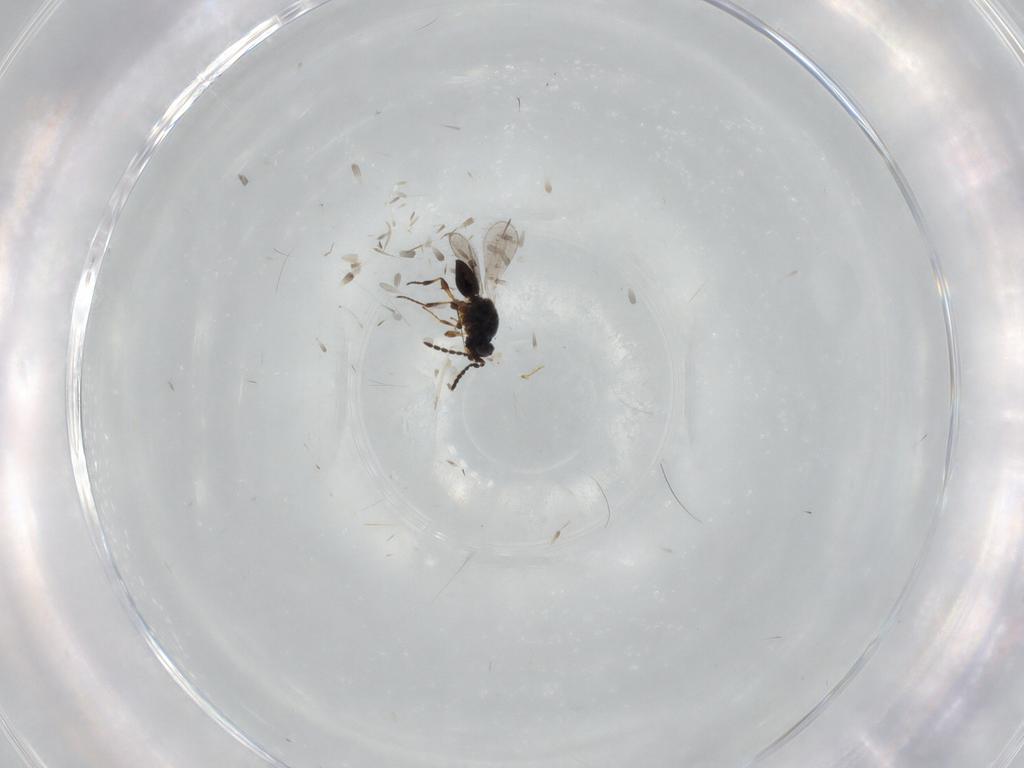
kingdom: Animalia
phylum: Arthropoda
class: Insecta
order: Hymenoptera
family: Platygastridae
